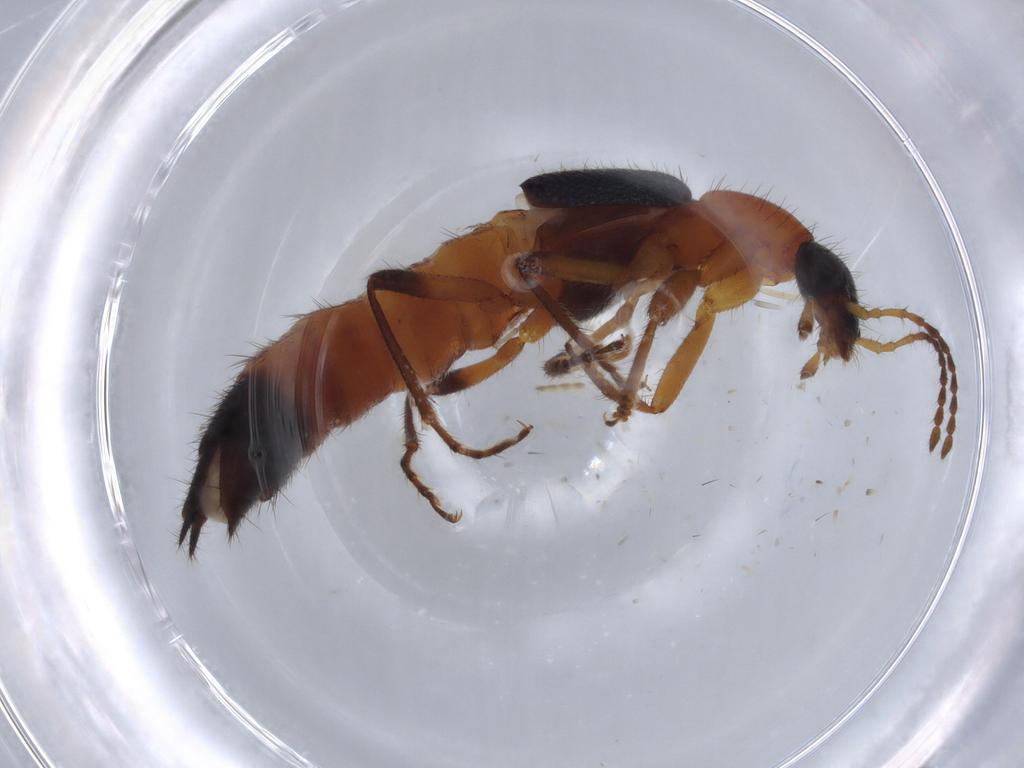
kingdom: Animalia
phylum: Arthropoda
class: Insecta
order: Coleoptera
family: Staphylinidae
